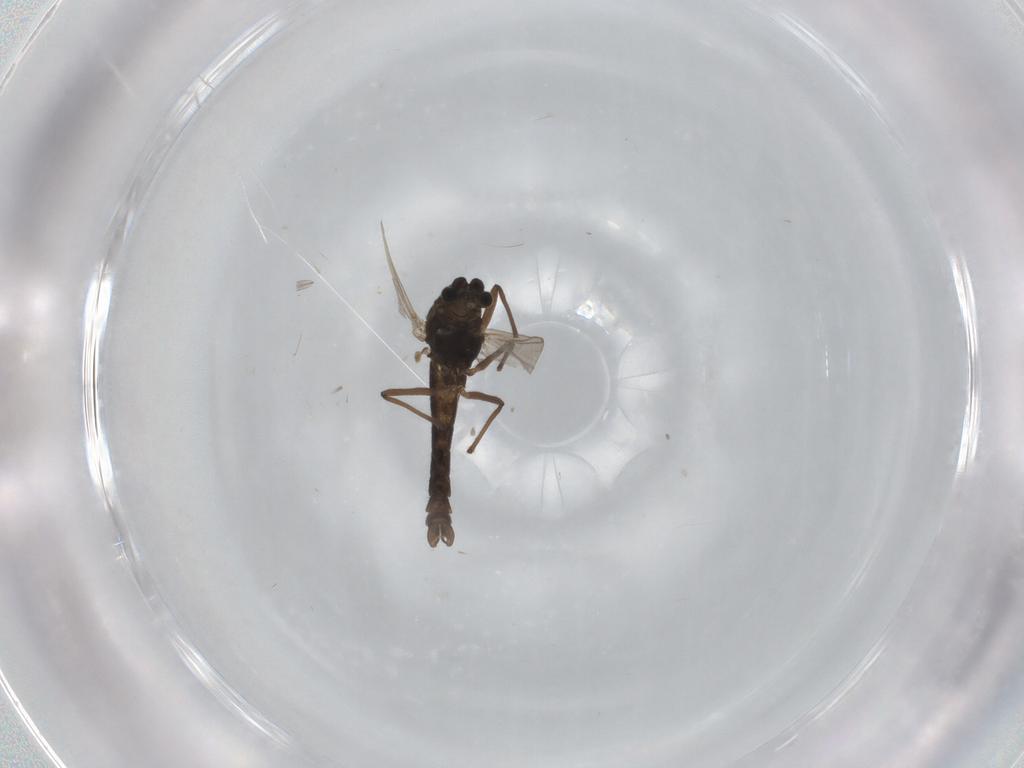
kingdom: Animalia
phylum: Arthropoda
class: Insecta
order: Diptera
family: Chironomidae
